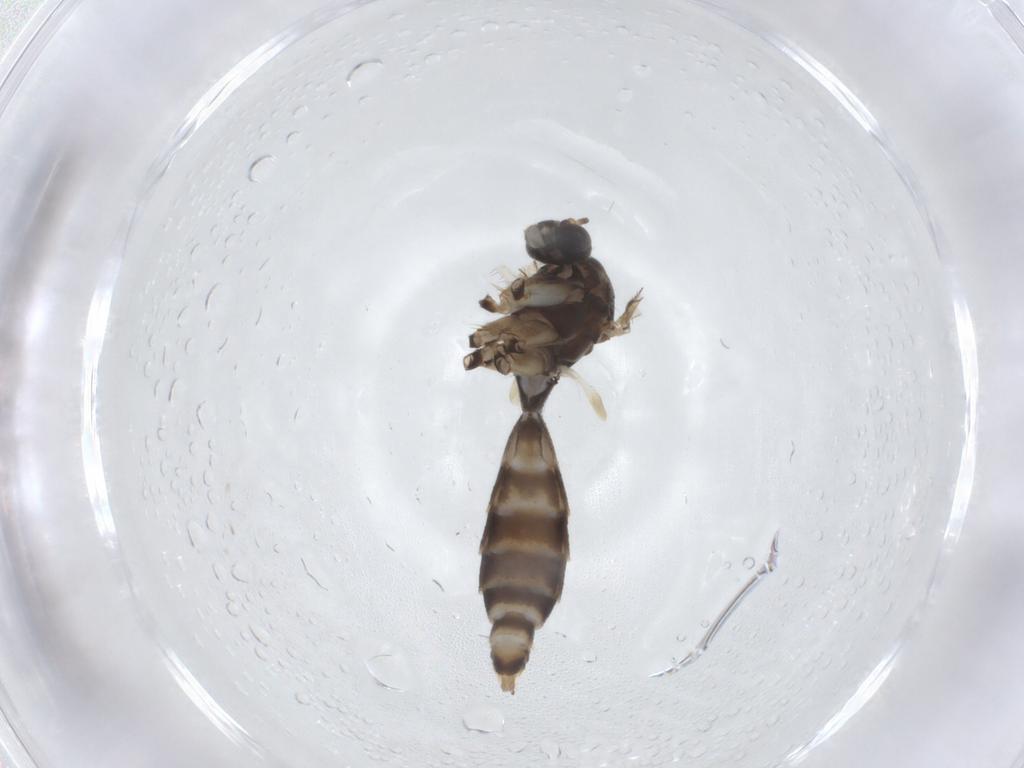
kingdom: Animalia
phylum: Arthropoda
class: Insecta
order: Diptera
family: Mycetophilidae
